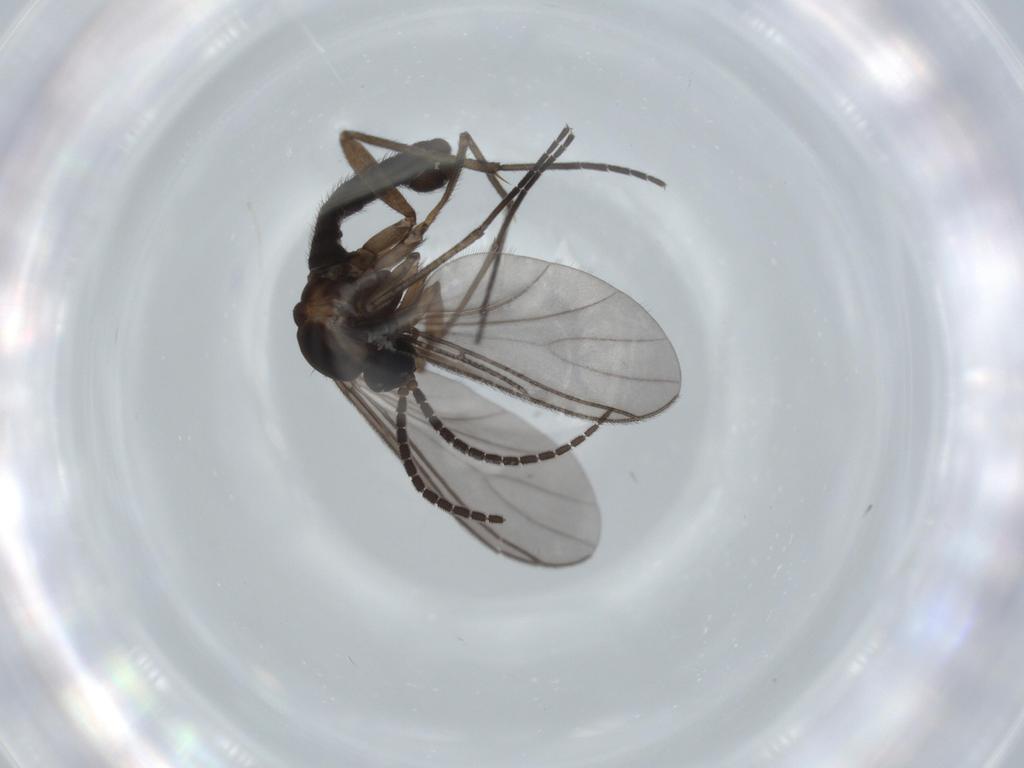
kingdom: Animalia
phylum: Arthropoda
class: Insecta
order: Diptera
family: Sciaridae
